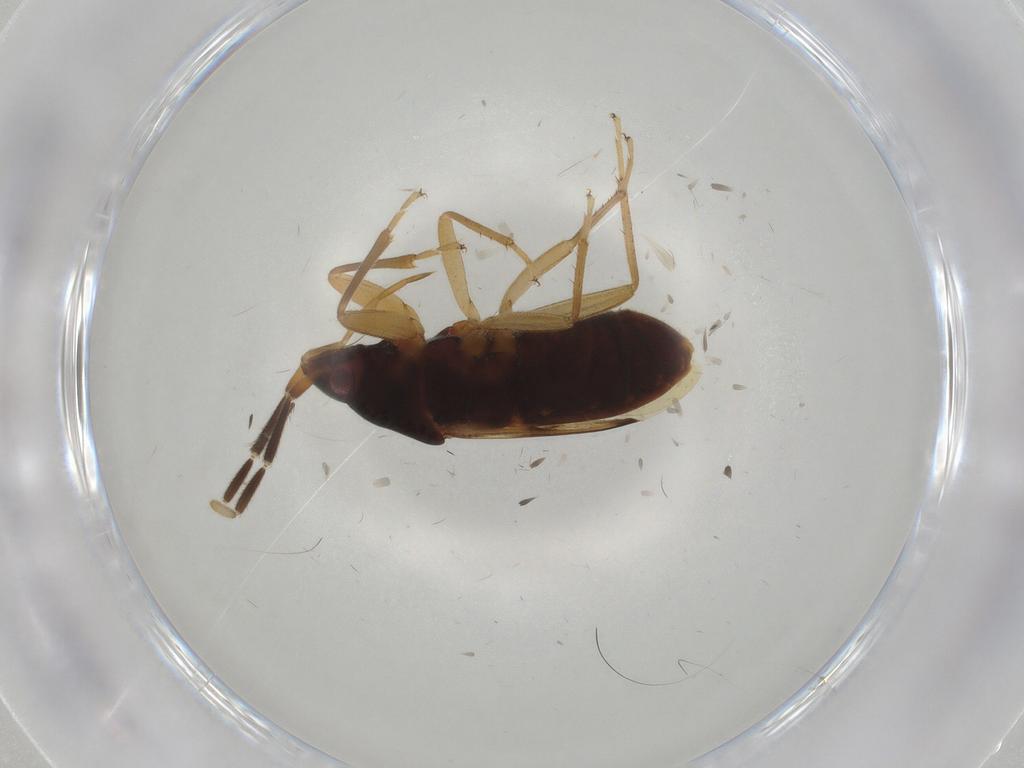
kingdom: Animalia
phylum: Arthropoda
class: Insecta
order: Hemiptera
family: Rhyparochromidae
